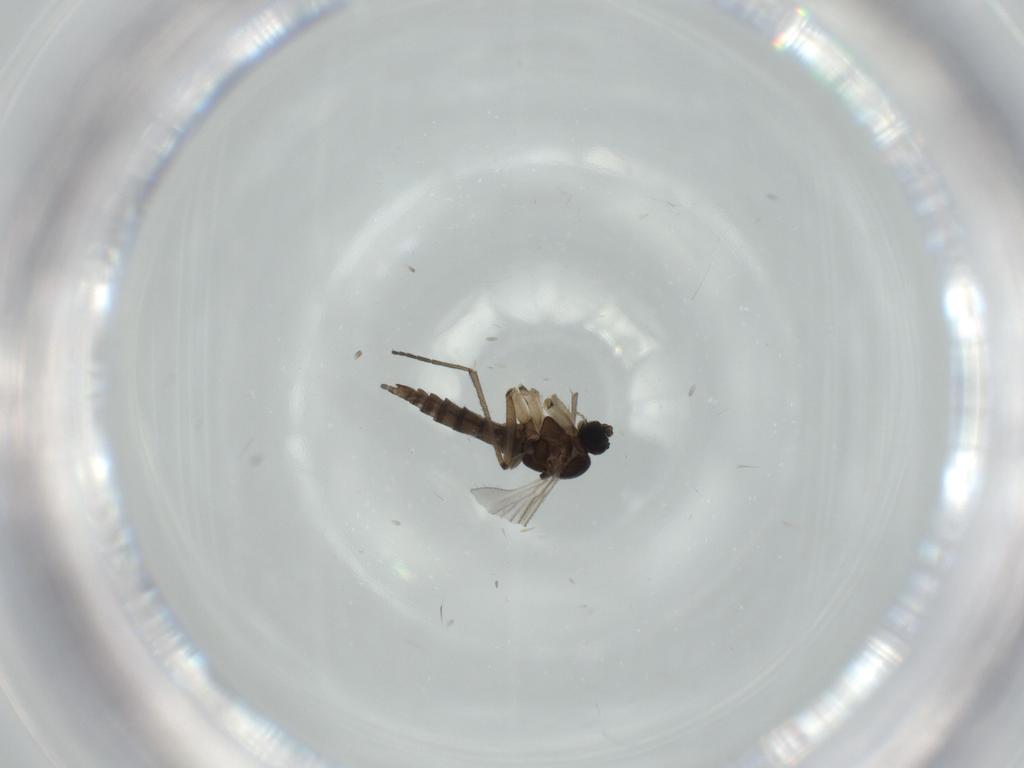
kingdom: Animalia
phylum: Arthropoda
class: Insecta
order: Diptera
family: Sciaridae
